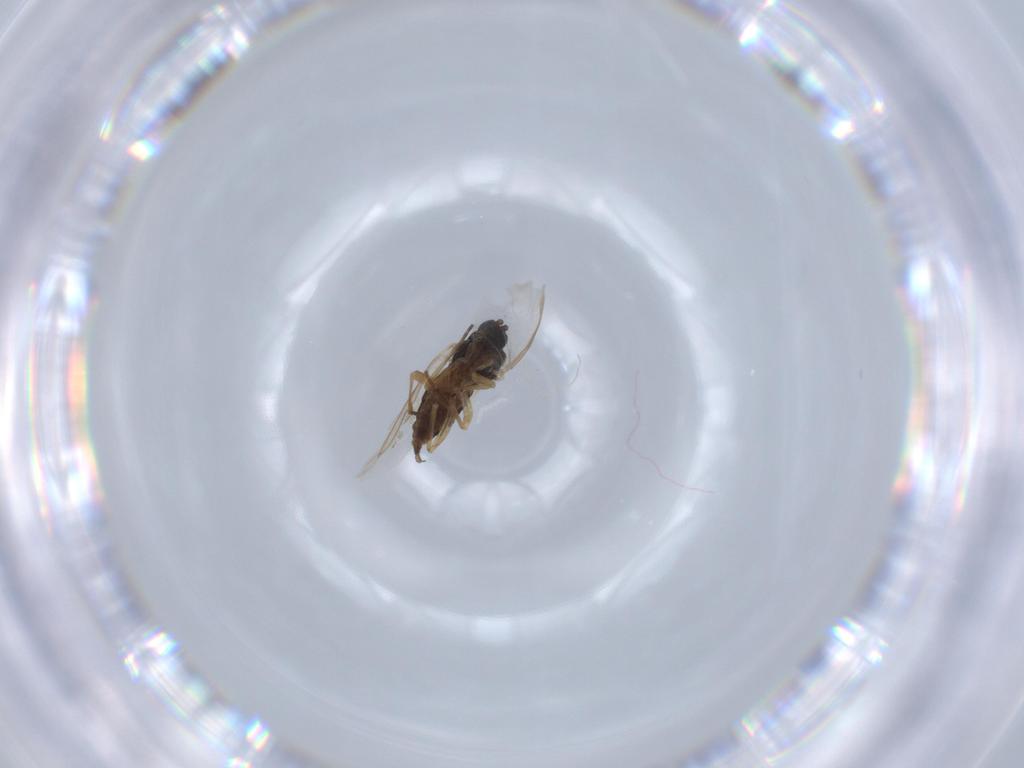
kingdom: Animalia
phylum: Arthropoda
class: Insecta
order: Diptera
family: Sciaridae
